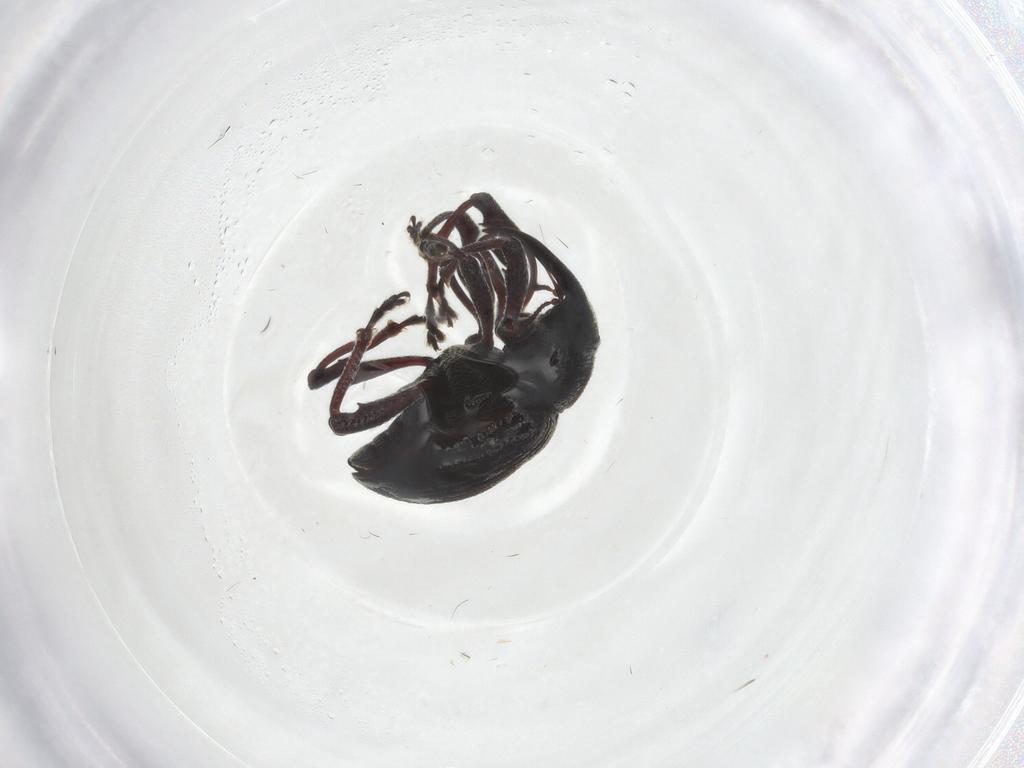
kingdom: Animalia
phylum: Arthropoda
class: Insecta
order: Coleoptera
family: Curculionidae
